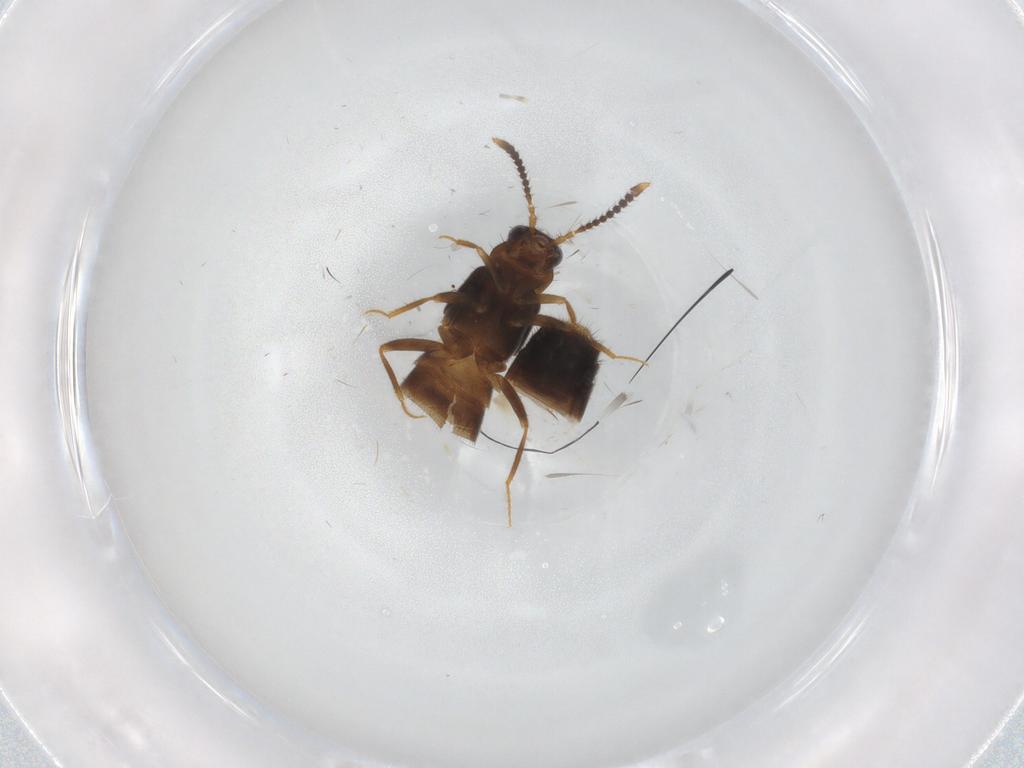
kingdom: Animalia
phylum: Arthropoda
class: Insecta
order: Coleoptera
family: Staphylinidae
